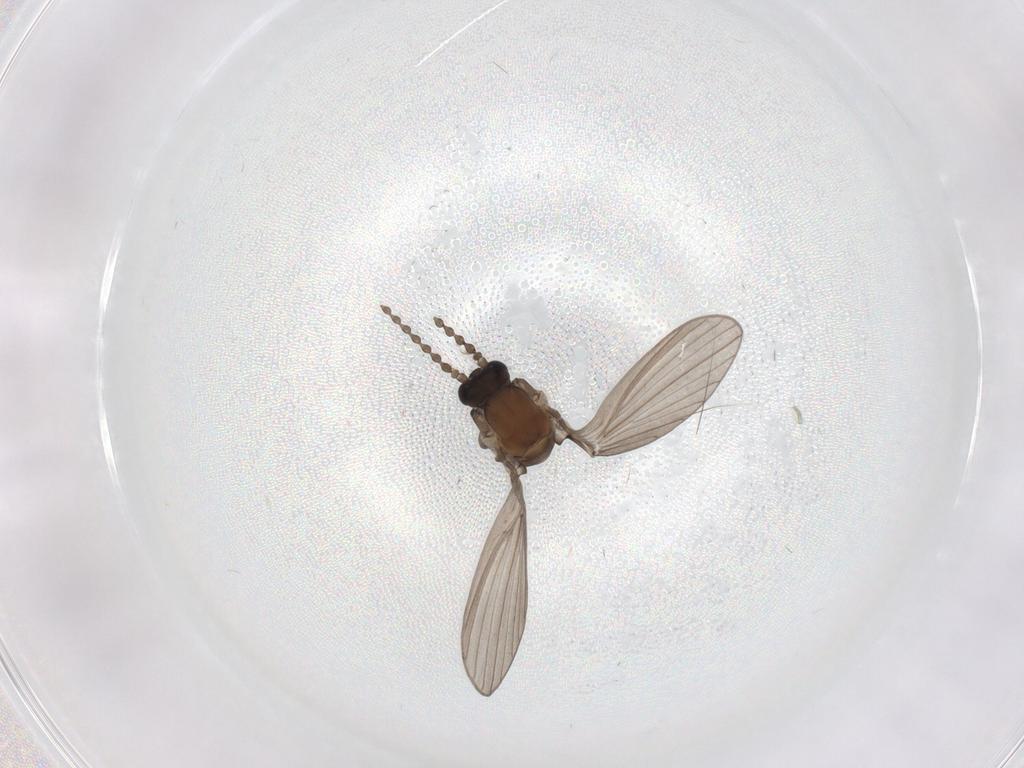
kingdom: Animalia
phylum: Arthropoda
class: Insecta
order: Diptera
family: Psychodidae
